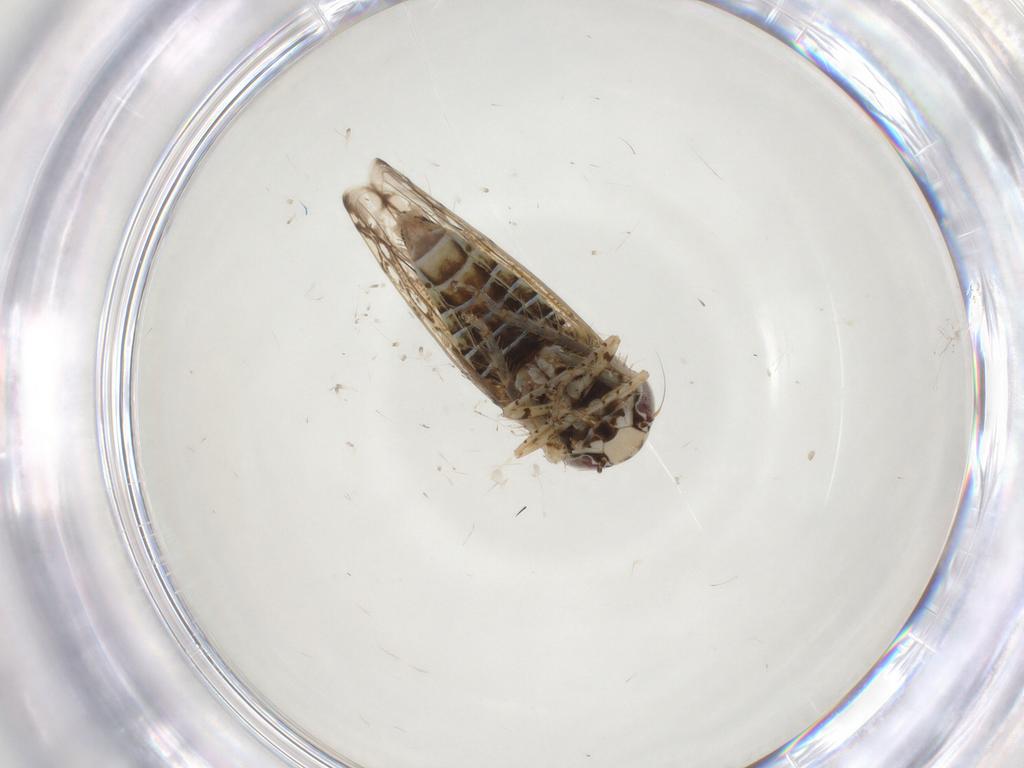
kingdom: Animalia
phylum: Arthropoda
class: Insecta
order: Hemiptera
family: Cicadellidae
